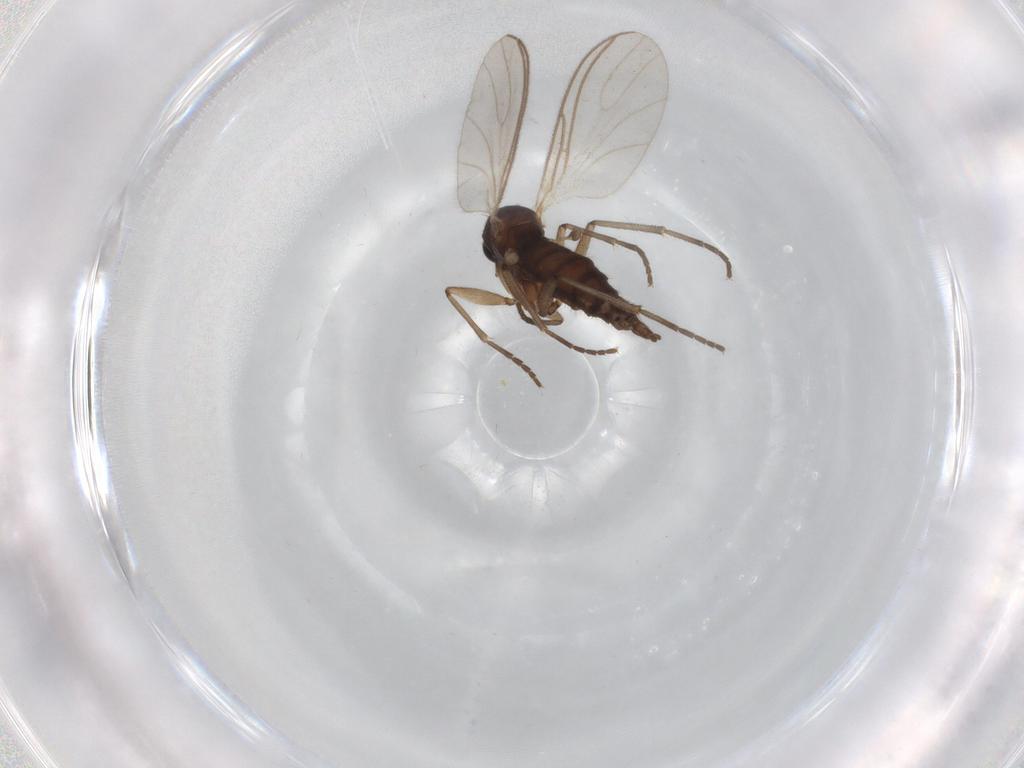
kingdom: Animalia
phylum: Arthropoda
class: Insecta
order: Diptera
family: Sciaridae
